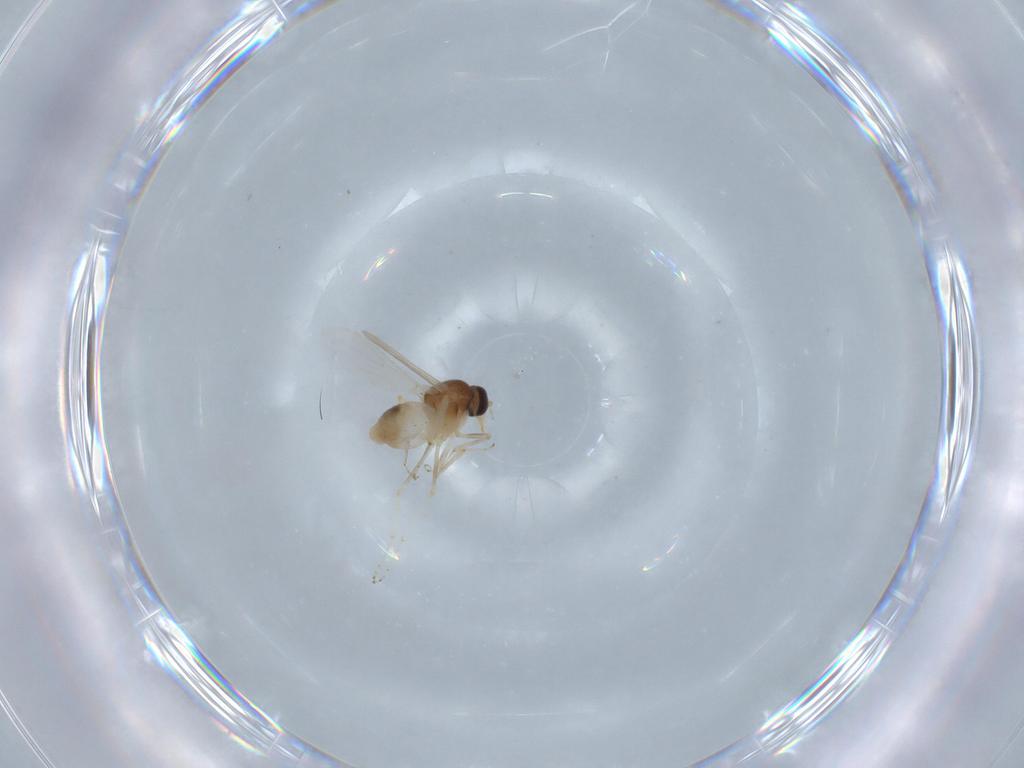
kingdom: Animalia
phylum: Arthropoda
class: Insecta
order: Diptera
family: Ceratopogonidae
